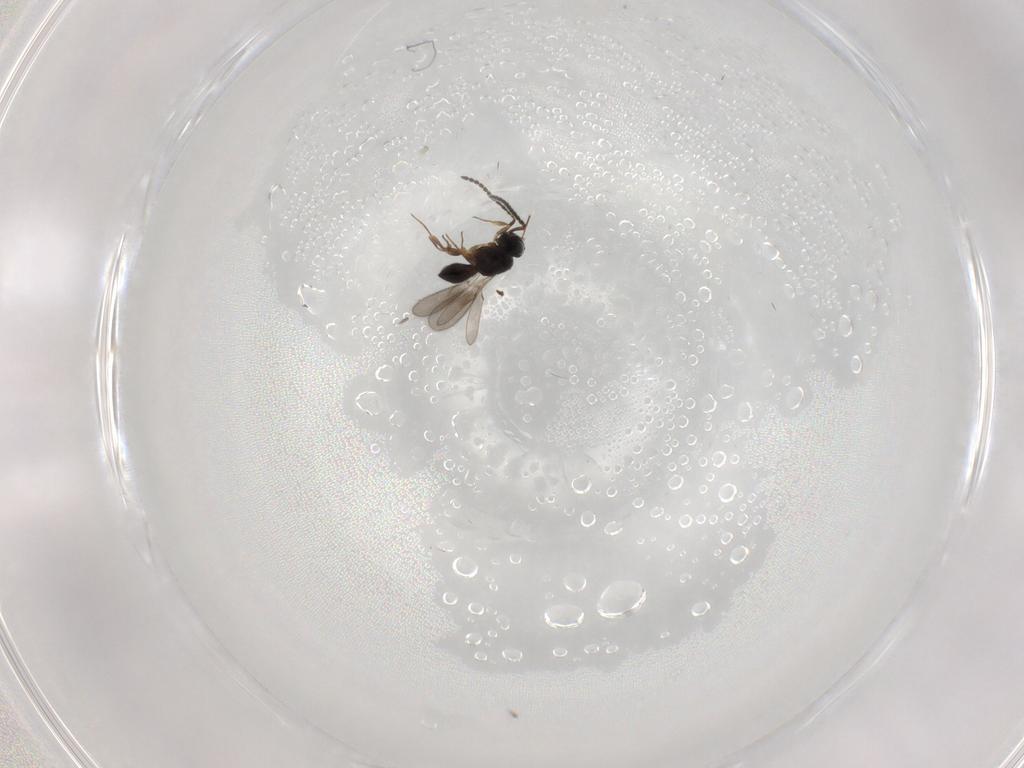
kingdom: Animalia
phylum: Arthropoda
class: Insecta
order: Hymenoptera
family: Scelionidae
